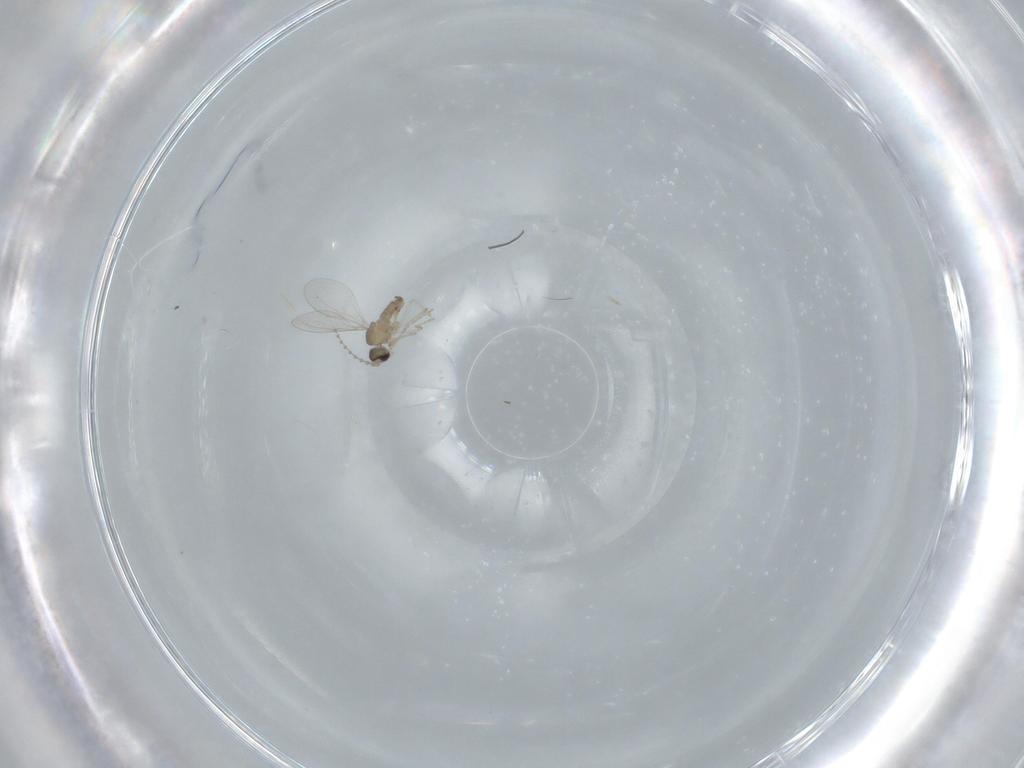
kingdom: Animalia
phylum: Arthropoda
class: Insecta
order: Diptera
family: Cecidomyiidae
